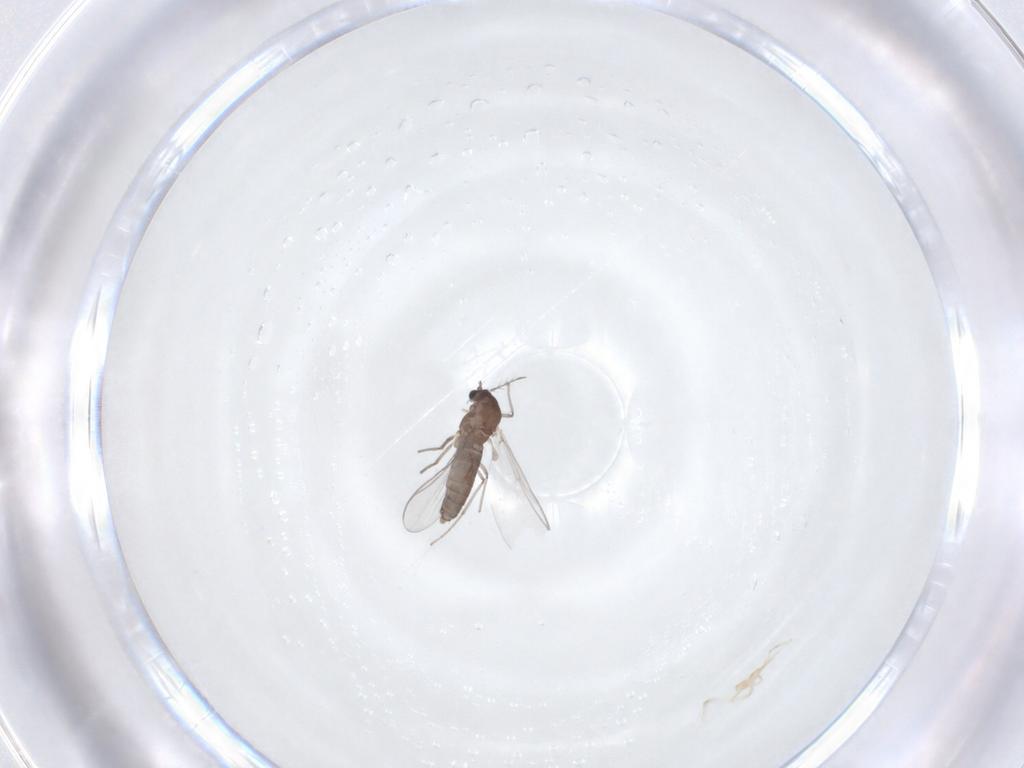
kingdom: Animalia
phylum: Arthropoda
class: Insecta
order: Diptera
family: Chironomidae
